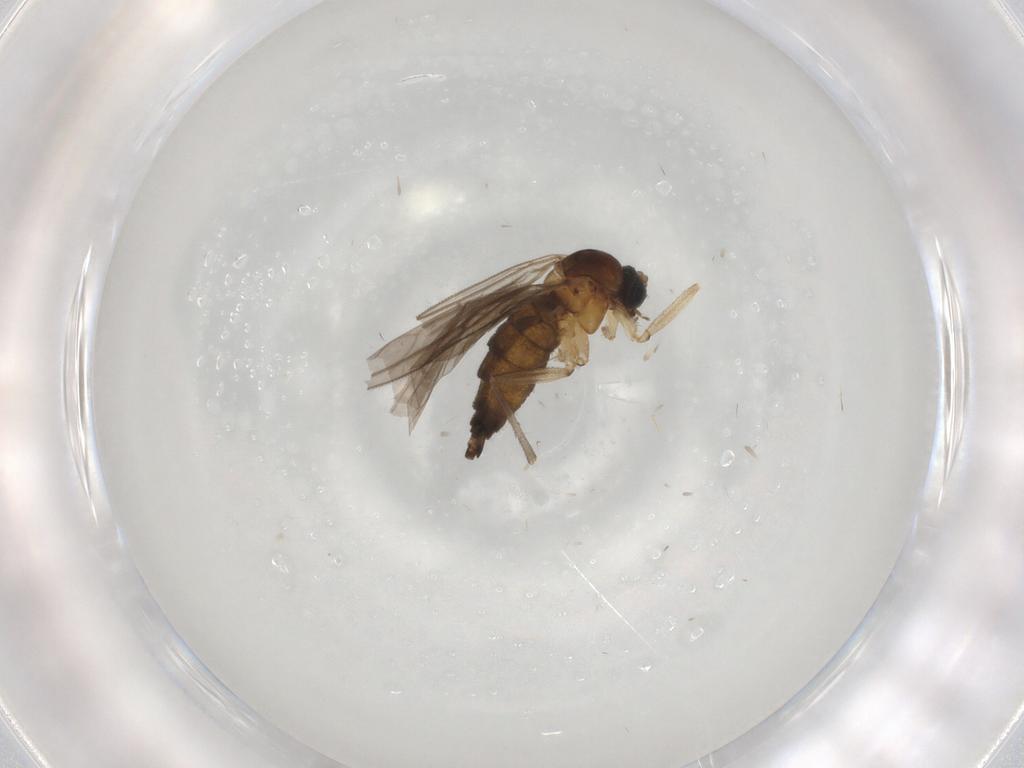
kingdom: Animalia
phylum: Arthropoda
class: Insecta
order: Diptera
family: Sciaridae
